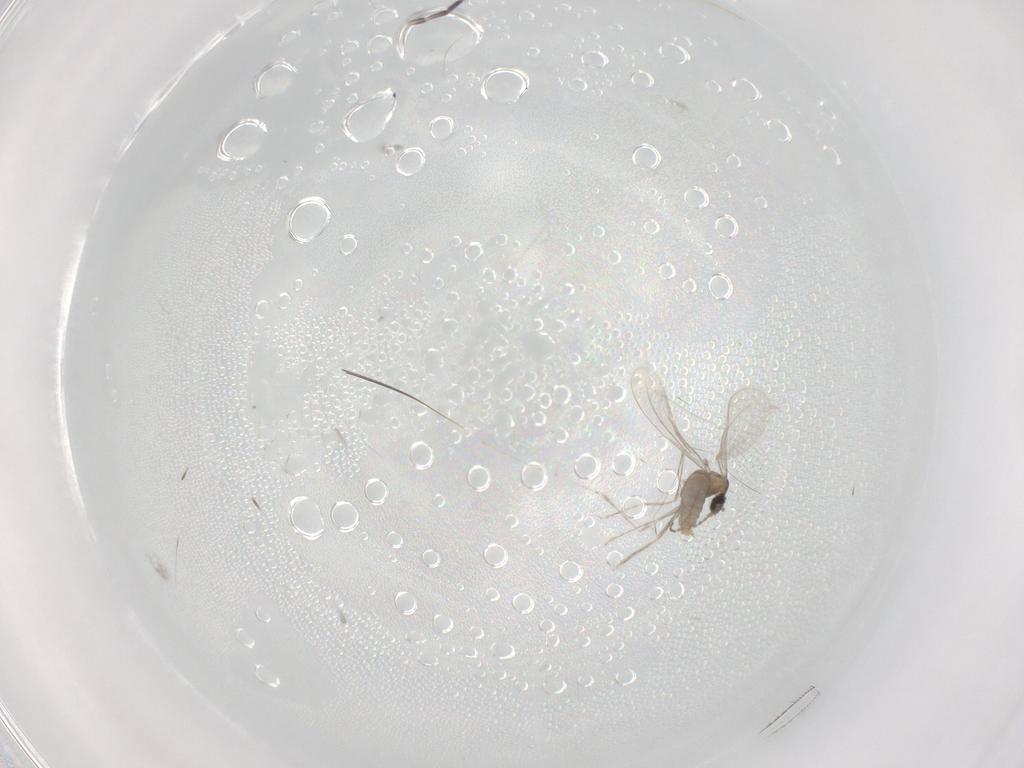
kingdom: Animalia
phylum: Arthropoda
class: Insecta
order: Diptera
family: Cecidomyiidae
